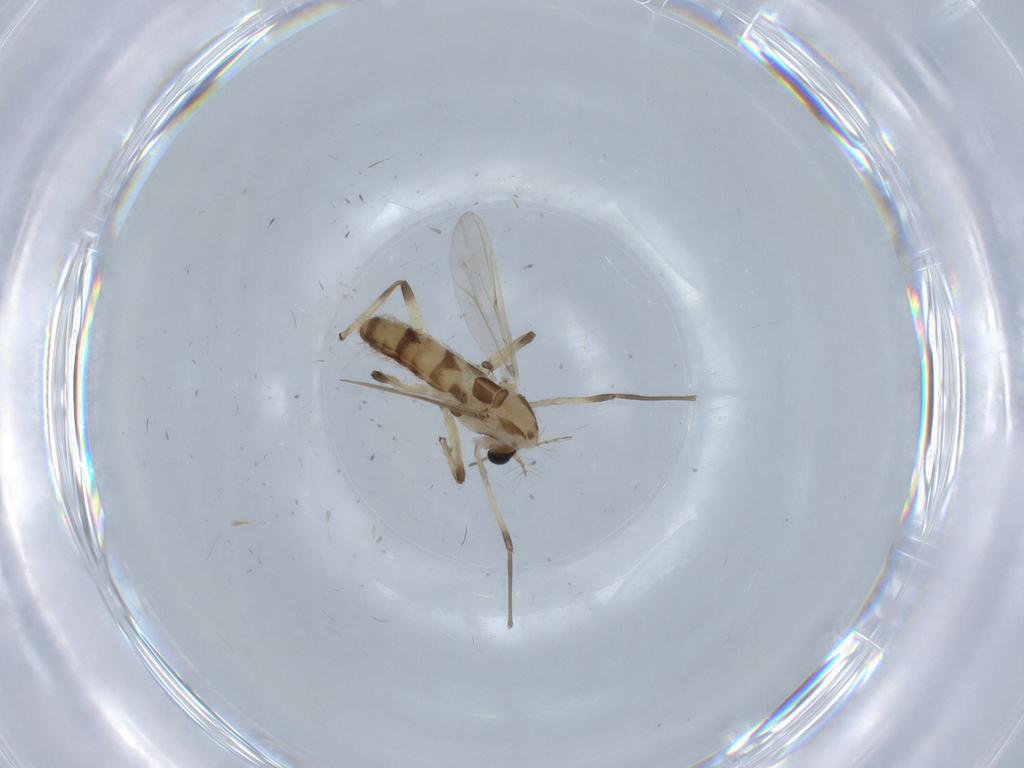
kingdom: Animalia
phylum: Arthropoda
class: Insecta
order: Diptera
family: Chironomidae
